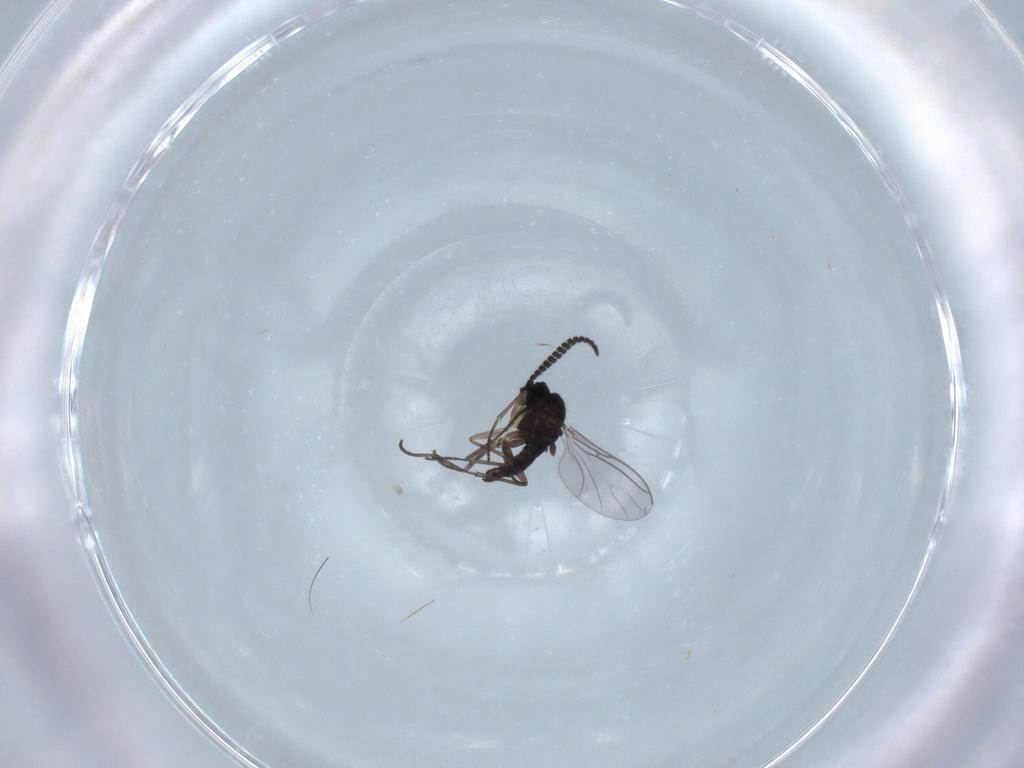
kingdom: Animalia
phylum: Arthropoda
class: Insecta
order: Diptera
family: Sciaridae
